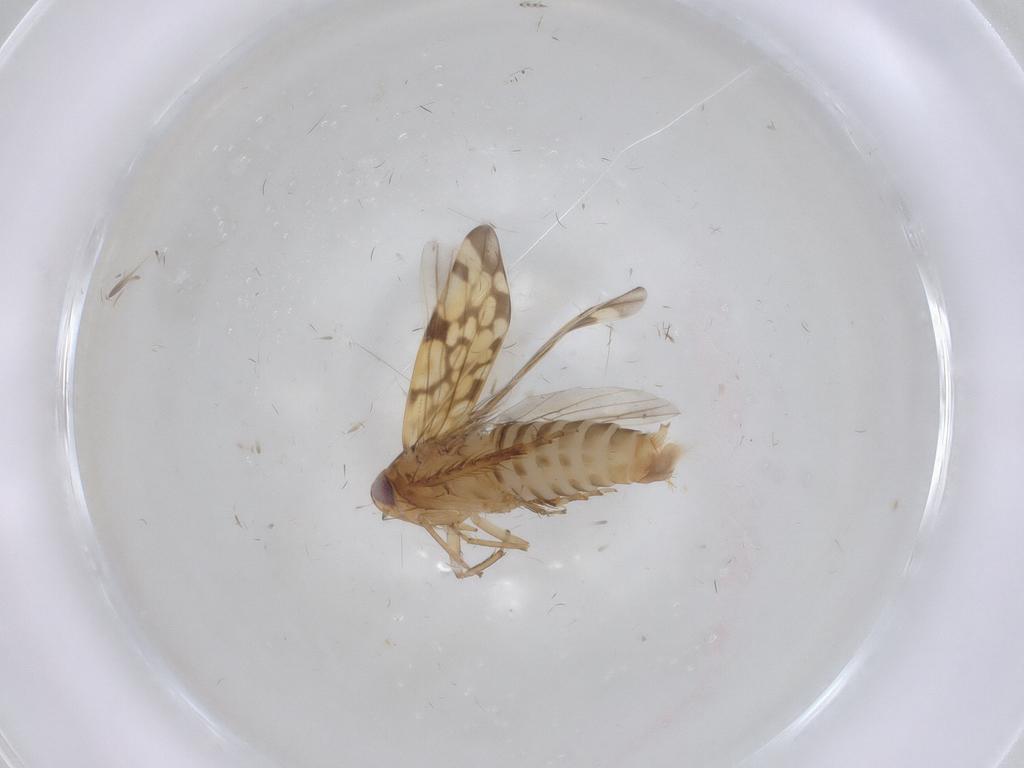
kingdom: Animalia
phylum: Arthropoda
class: Insecta
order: Hemiptera
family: Cicadellidae
